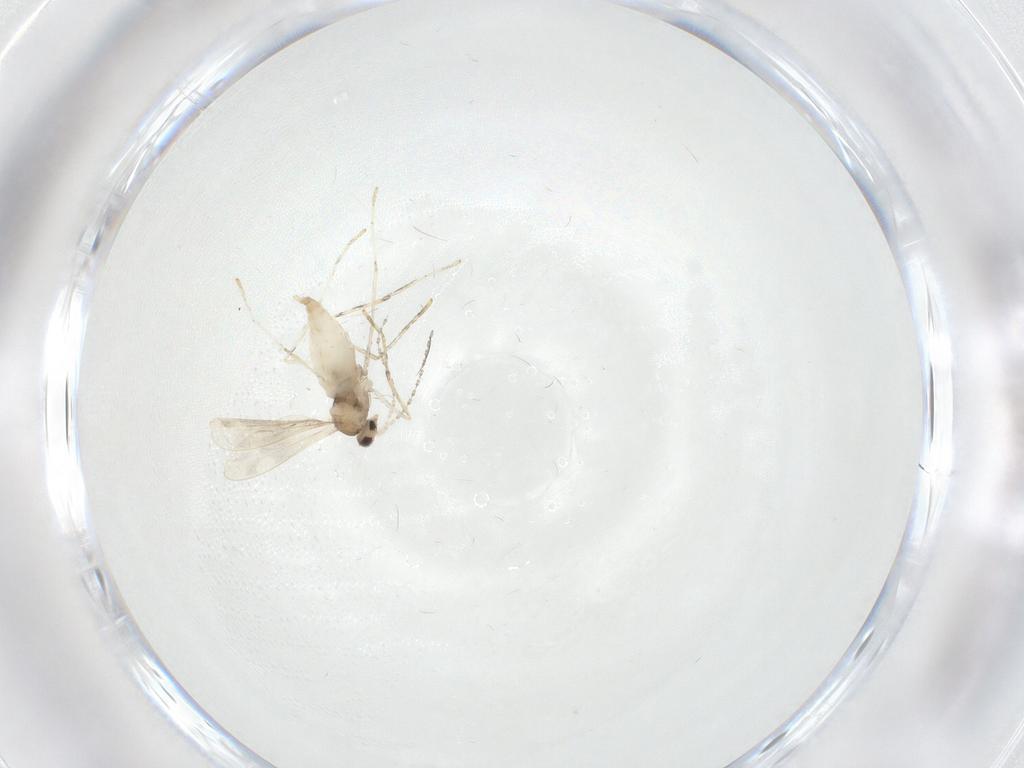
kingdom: Animalia
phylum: Arthropoda
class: Insecta
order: Diptera
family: Cecidomyiidae
